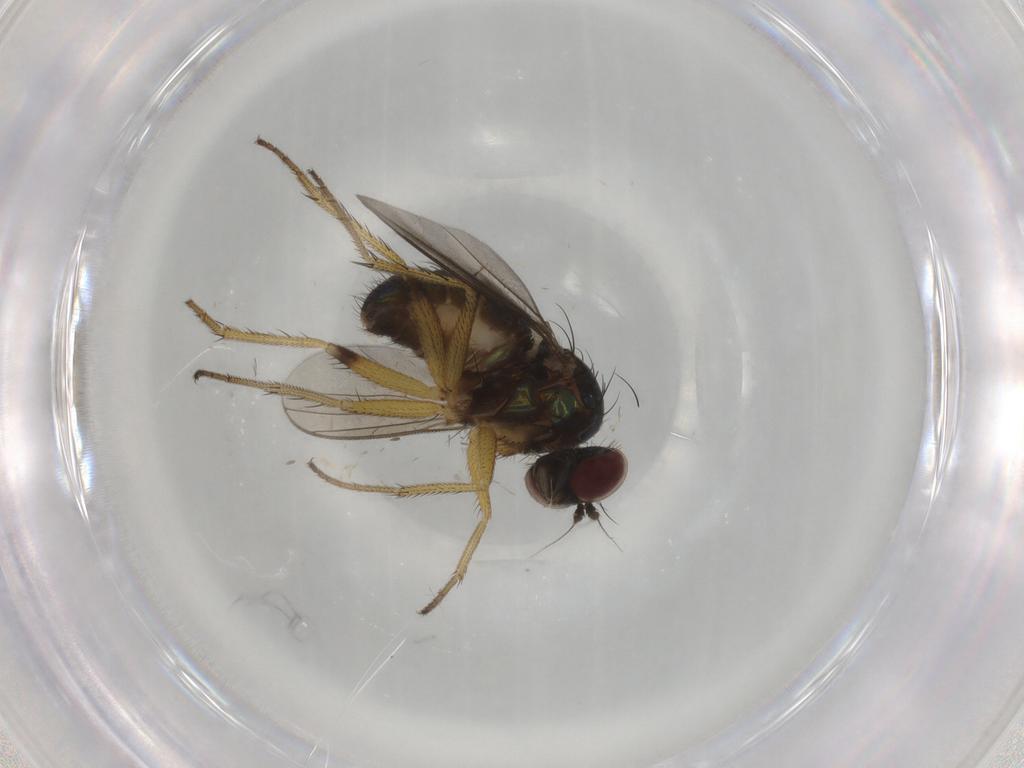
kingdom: Animalia
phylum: Arthropoda
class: Insecta
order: Diptera
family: Dolichopodidae
